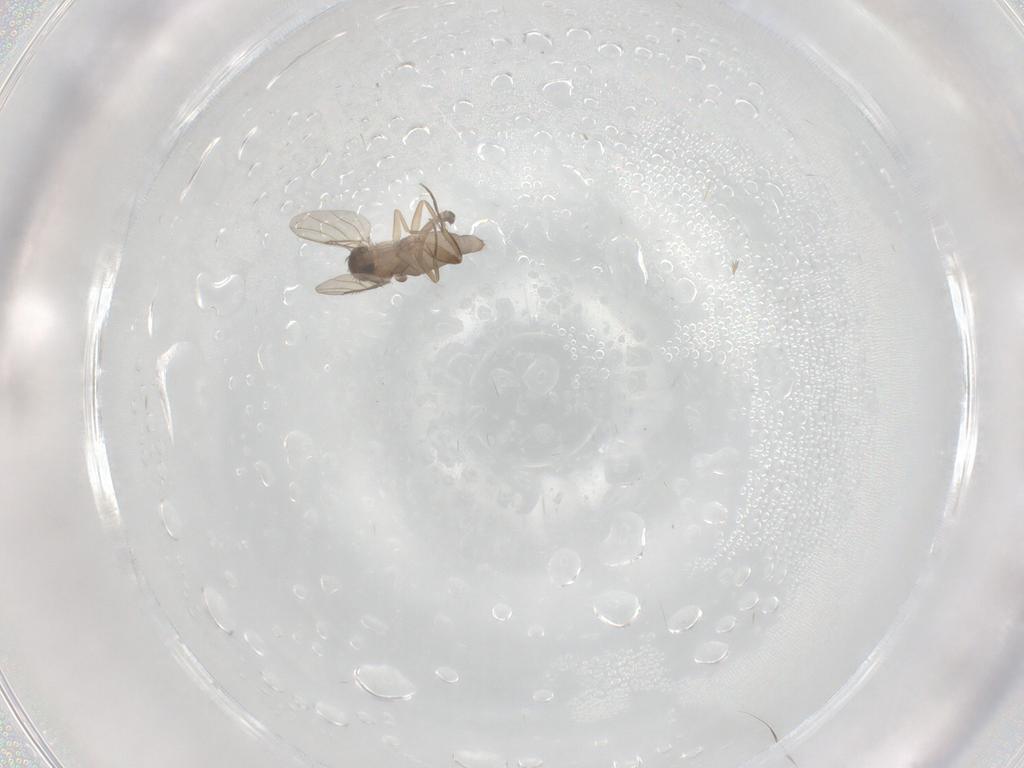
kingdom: Animalia
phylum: Arthropoda
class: Insecta
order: Diptera
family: Phoridae
